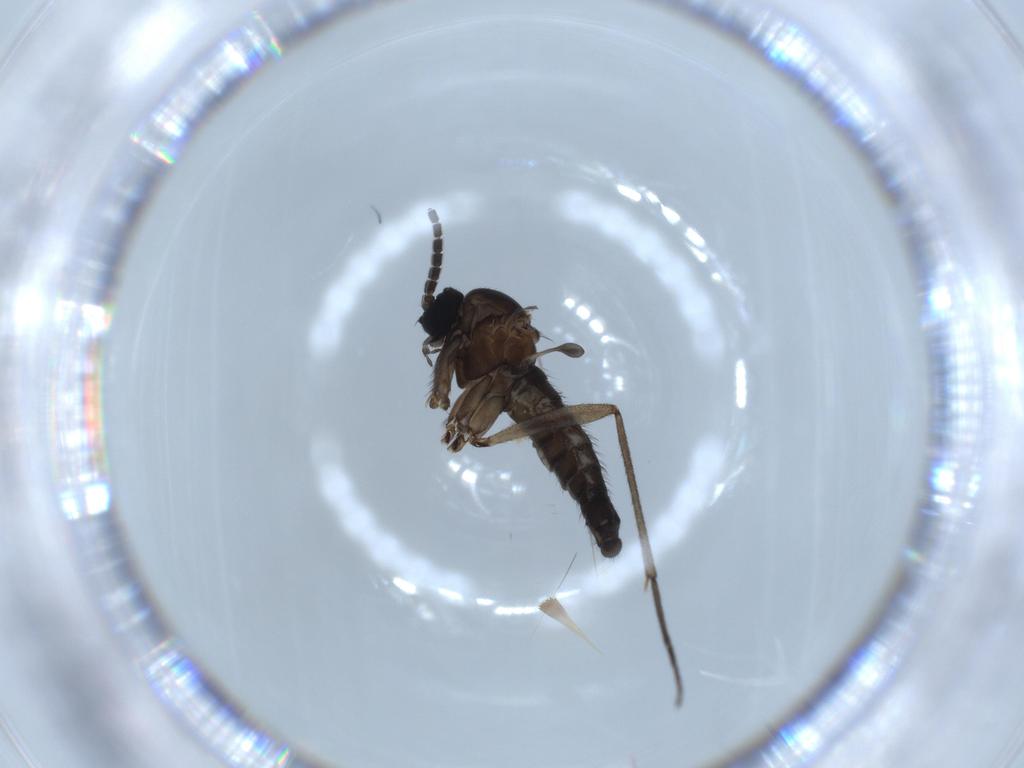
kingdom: Animalia
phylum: Arthropoda
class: Insecta
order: Diptera
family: Sciaridae
